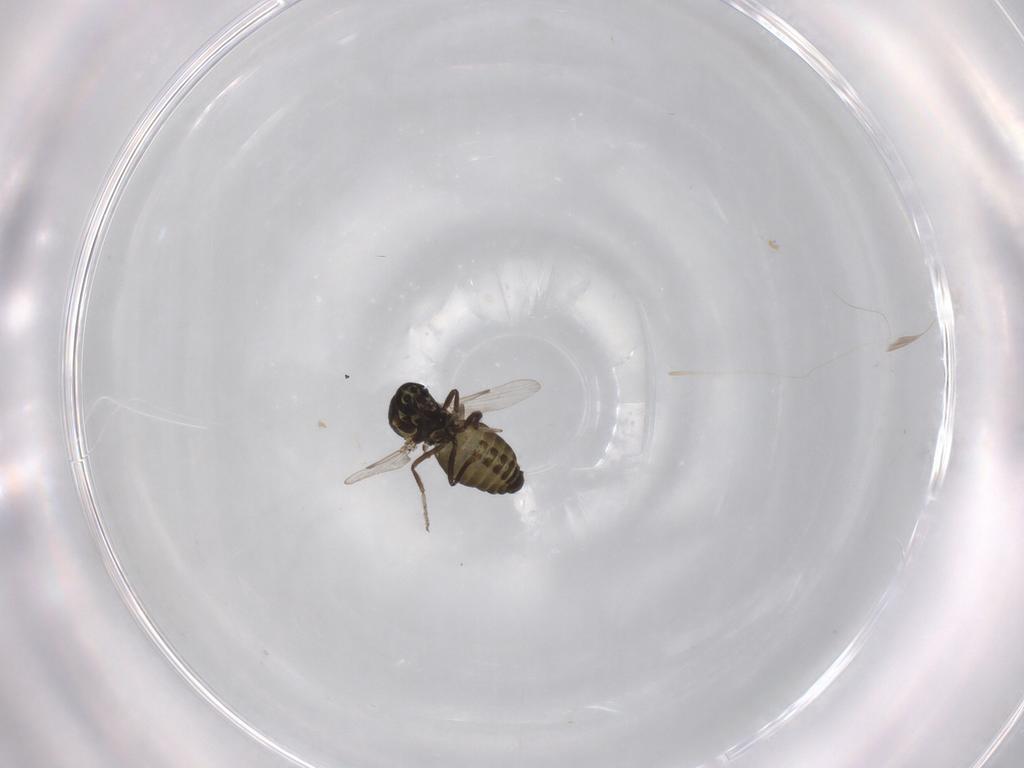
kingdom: Animalia
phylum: Arthropoda
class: Insecta
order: Diptera
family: Ceratopogonidae
